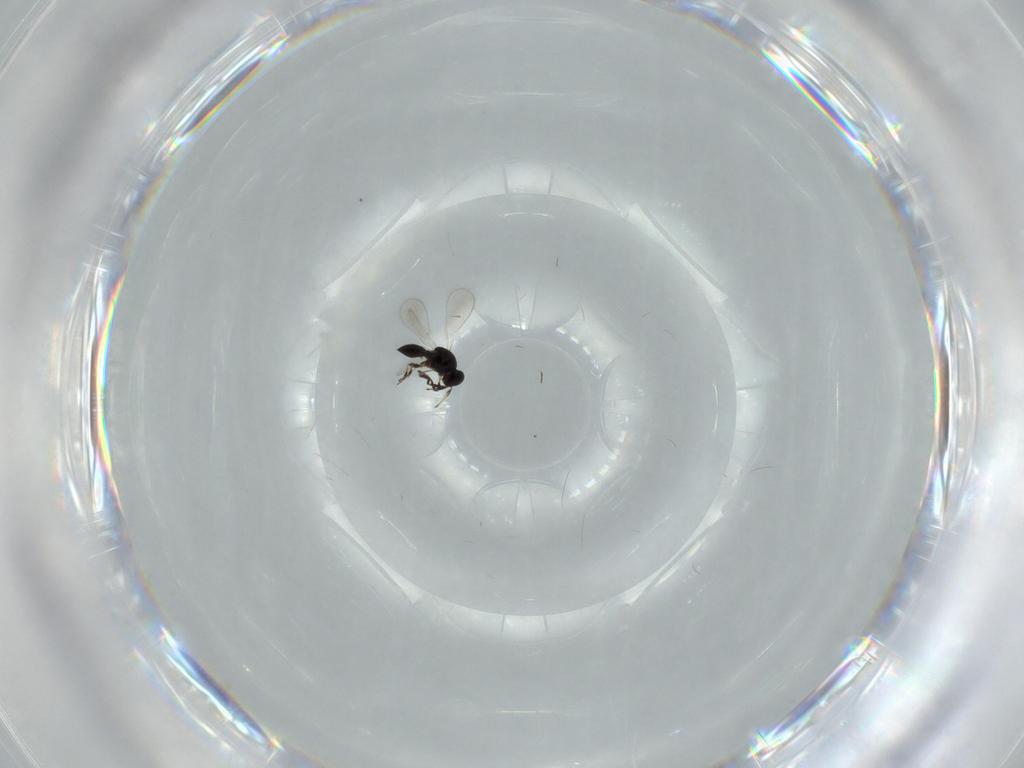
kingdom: Animalia
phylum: Arthropoda
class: Insecta
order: Hymenoptera
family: Platygastridae
